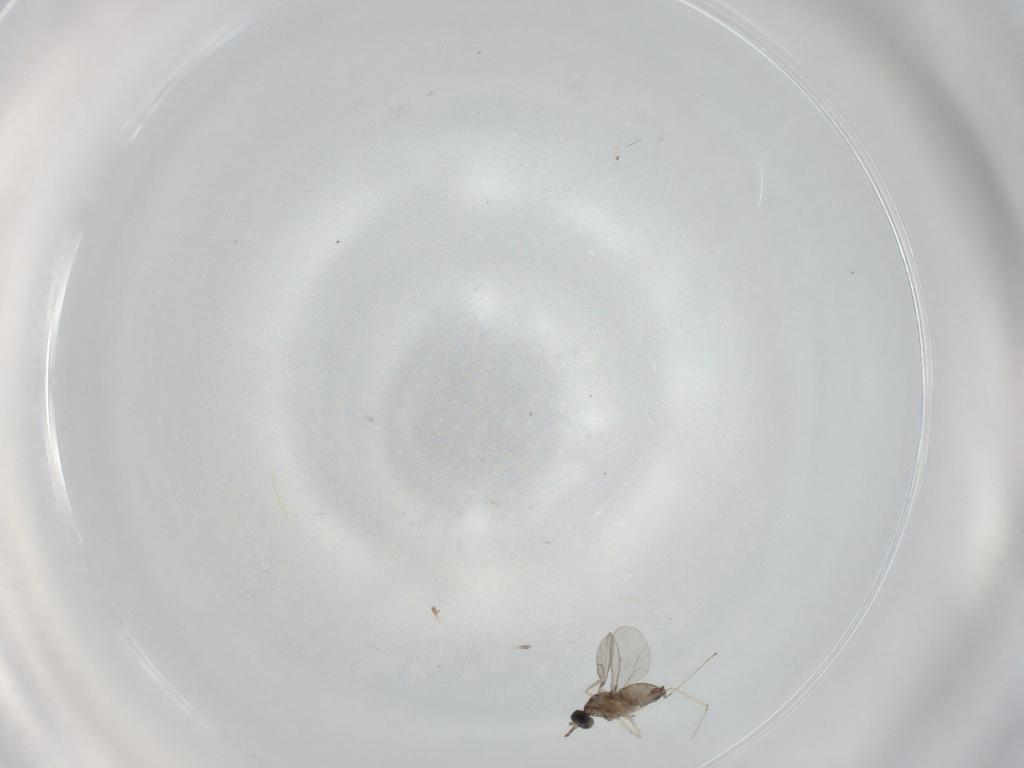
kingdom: Animalia
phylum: Arthropoda
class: Insecta
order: Diptera
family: Cecidomyiidae
